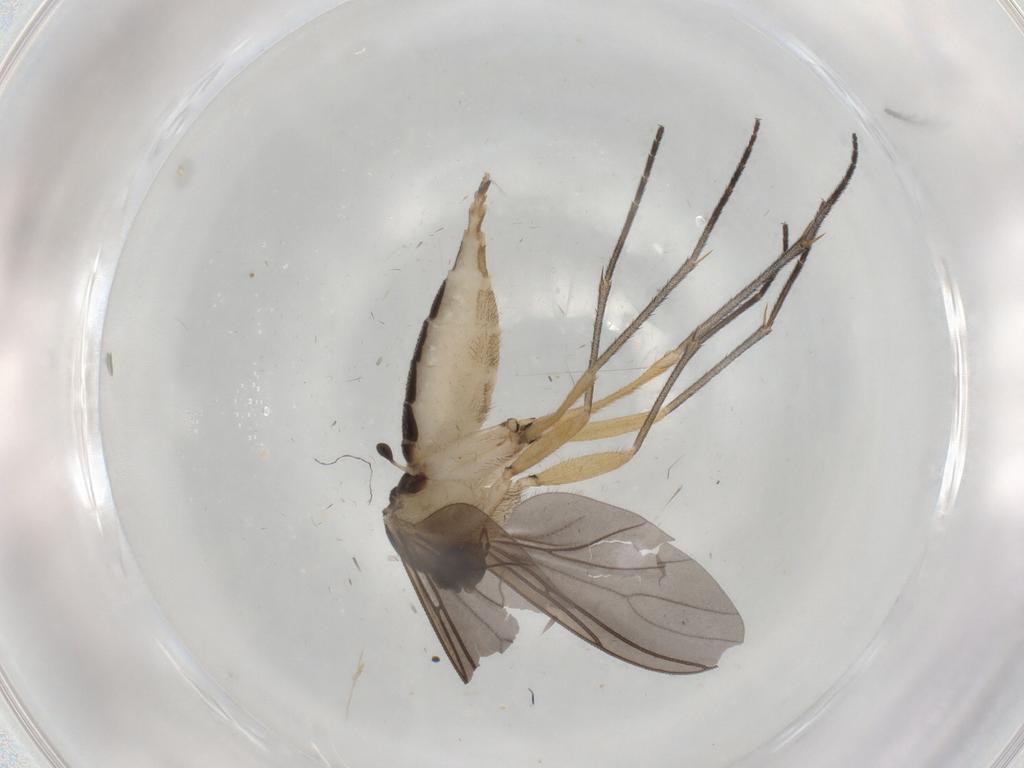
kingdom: Animalia
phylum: Arthropoda
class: Insecta
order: Diptera
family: Sciaridae
